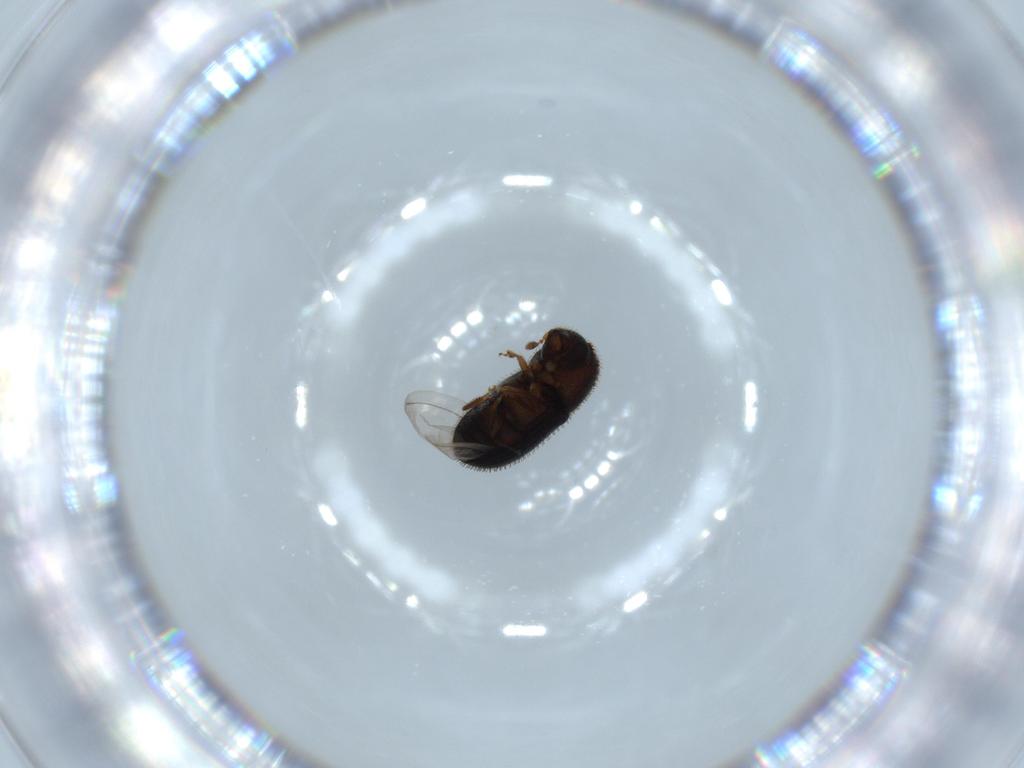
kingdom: Animalia
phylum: Arthropoda
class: Insecta
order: Coleoptera
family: Curculionidae
